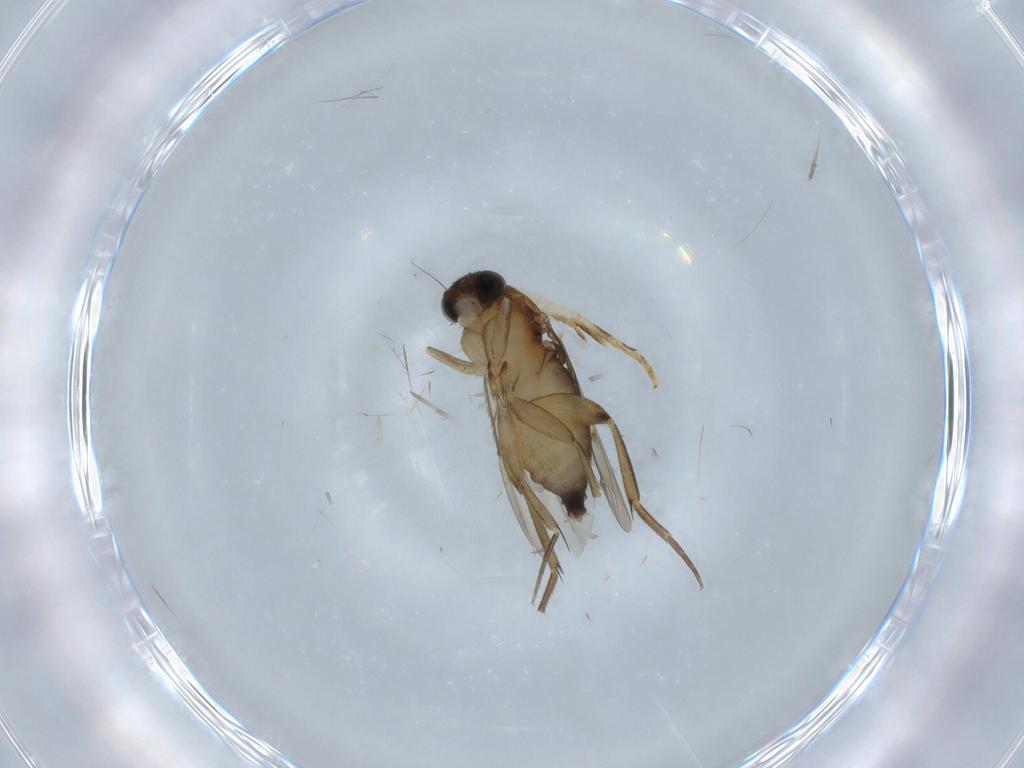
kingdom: Animalia
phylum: Arthropoda
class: Insecta
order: Diptera
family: Phoridae
